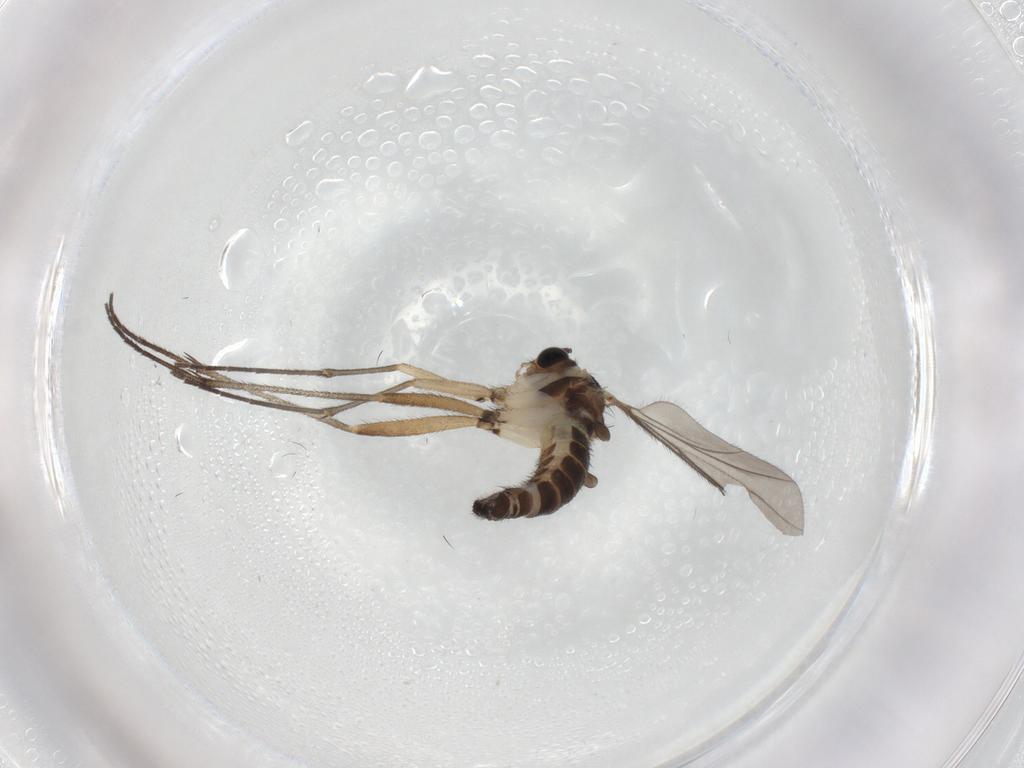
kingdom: Animalia
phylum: Arthropoda
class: Insecta
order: Diptera
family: Sciaridae
